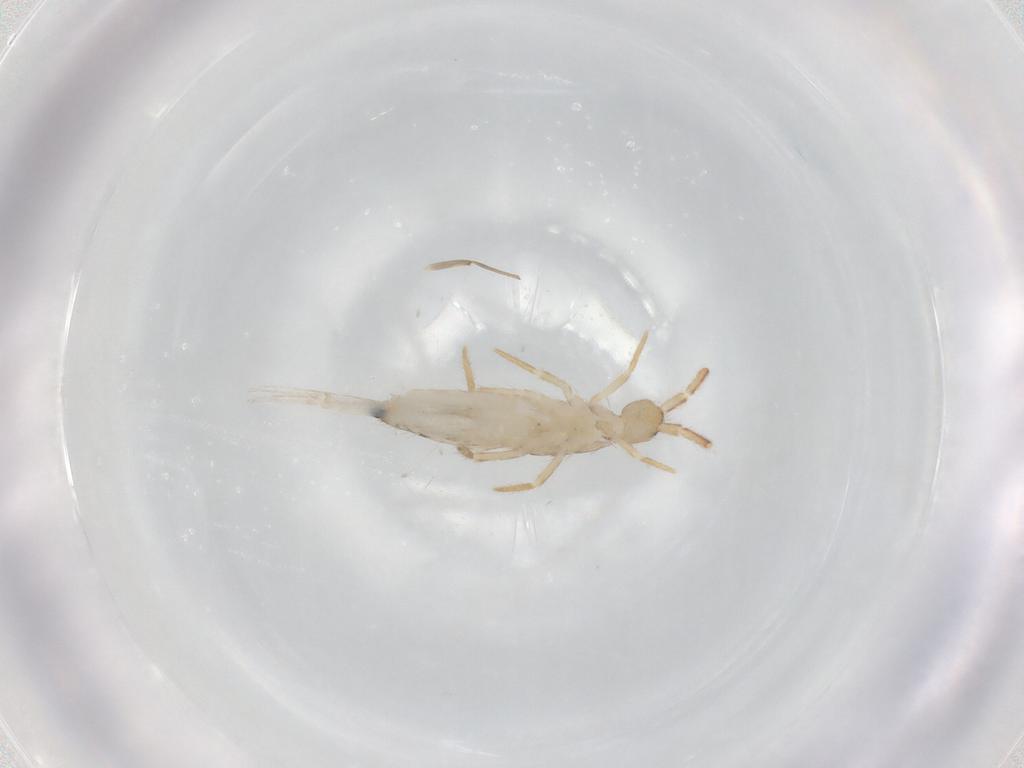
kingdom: Animalia
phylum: Arthropoda
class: Collembola
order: Entomobryomorpha
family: Entomobryidae
